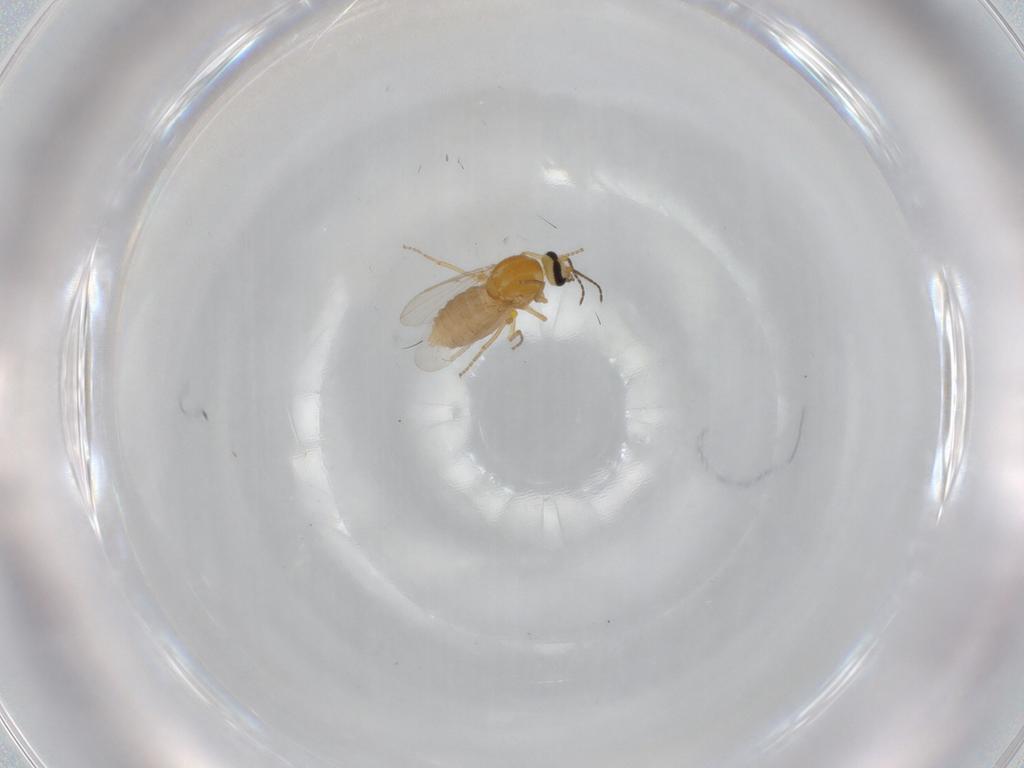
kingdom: Animalia
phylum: Arthropoda
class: Insecta
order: Diptera
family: Ceratopogonidae
